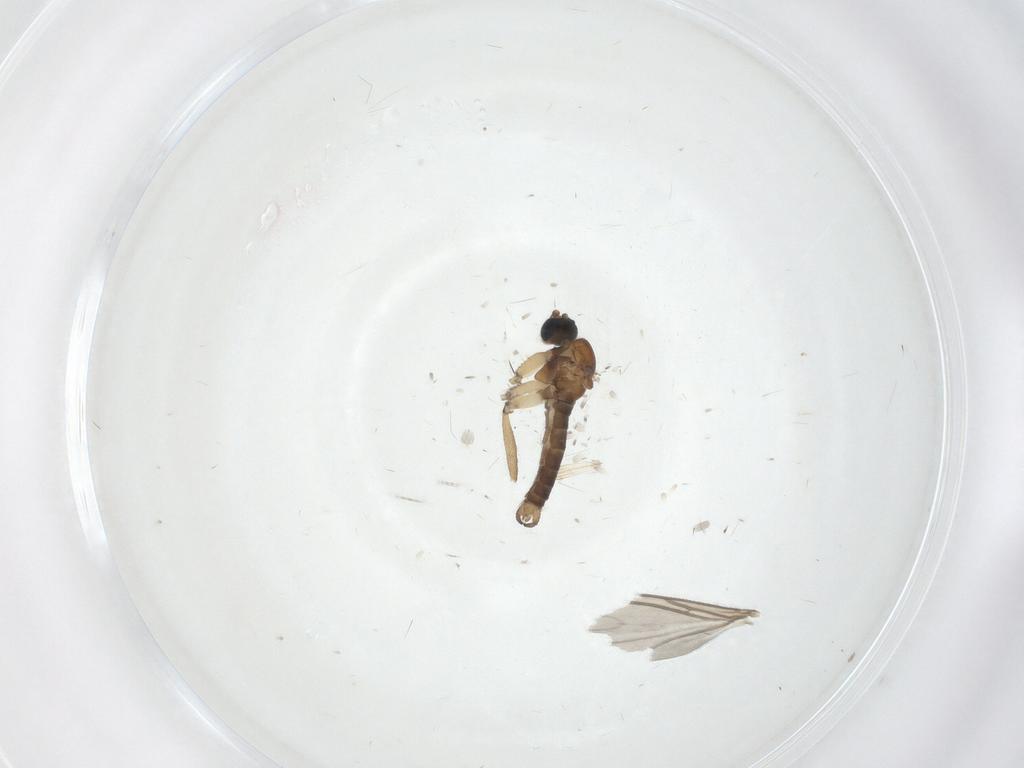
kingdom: Animalia
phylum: Arthropoda
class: Insecta
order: Diptera
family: Sciaridae
